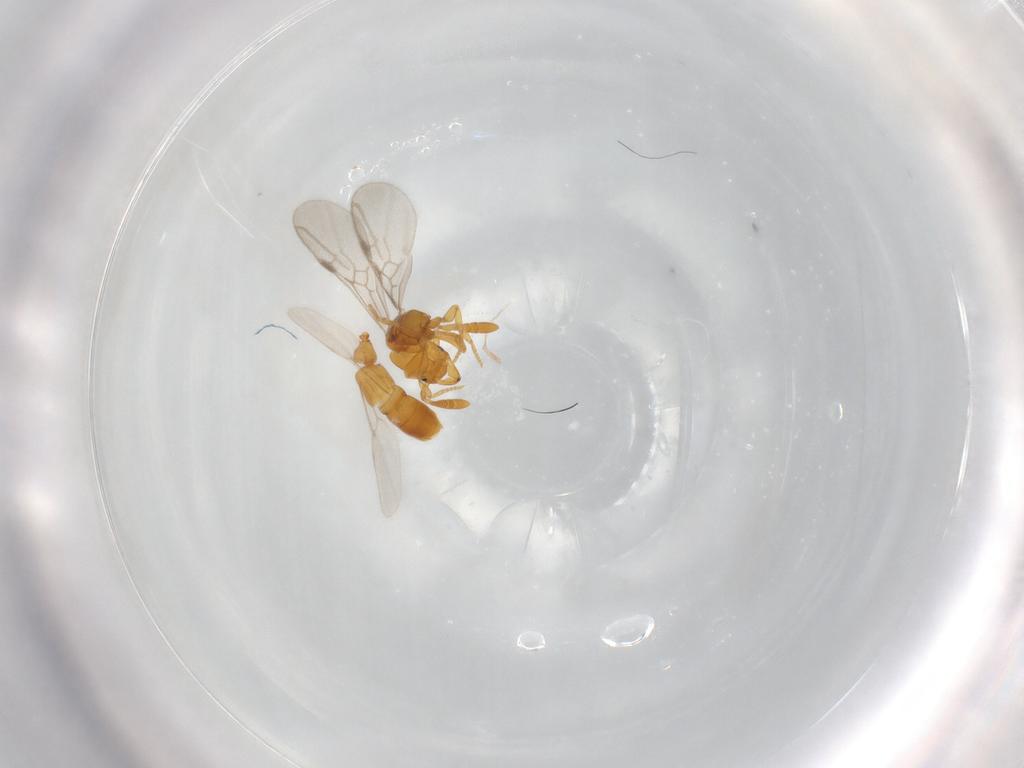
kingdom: Animalia
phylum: Arthropoda
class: Insecta
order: Hymenoptera
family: Formicidae
